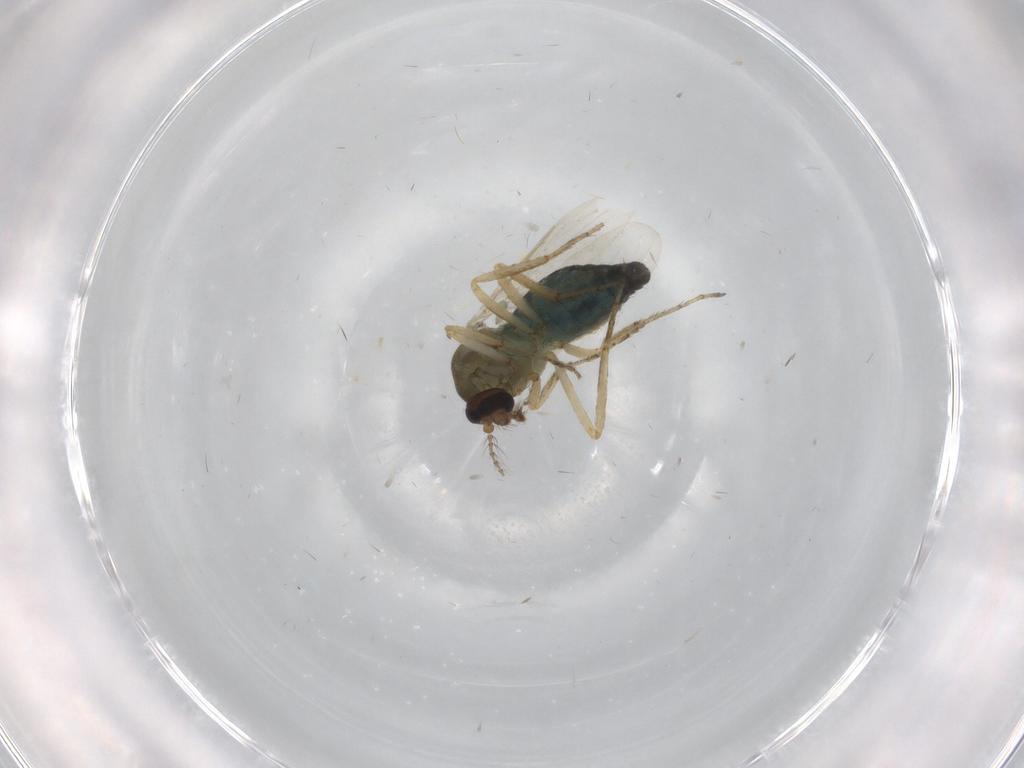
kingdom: Animalia
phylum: Arthropoda
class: Insecta
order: Diptera
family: Ceratopogonidae
